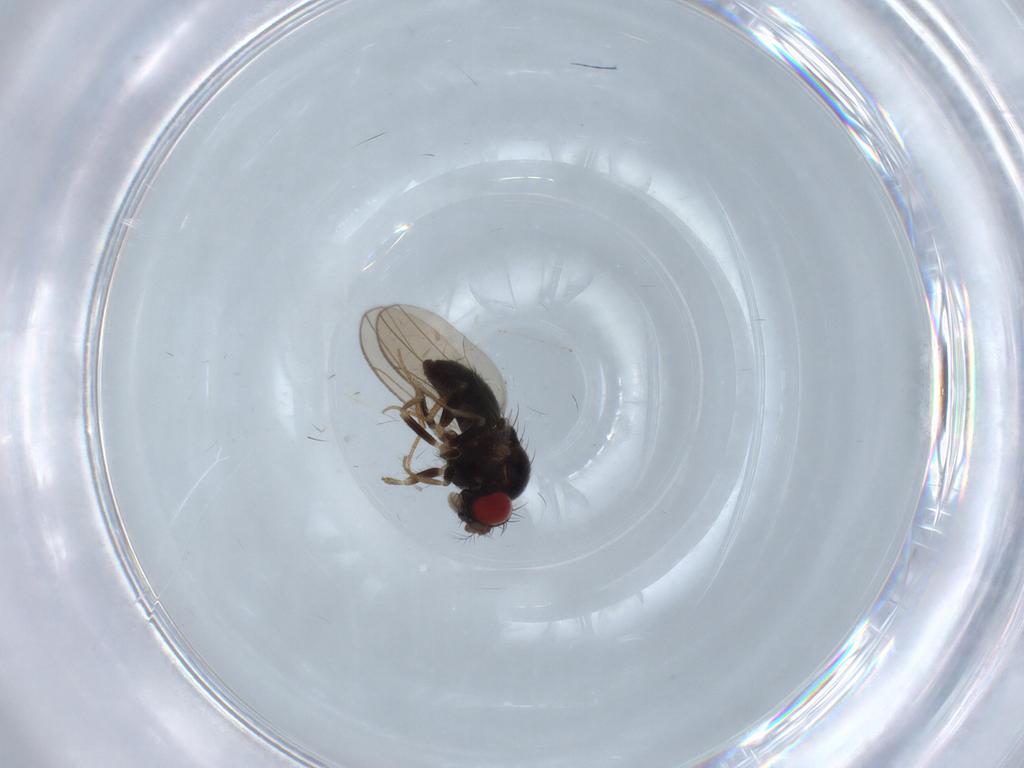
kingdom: Animalia
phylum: Arthropoda
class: Insecta
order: Diptera
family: Drosophilidae
